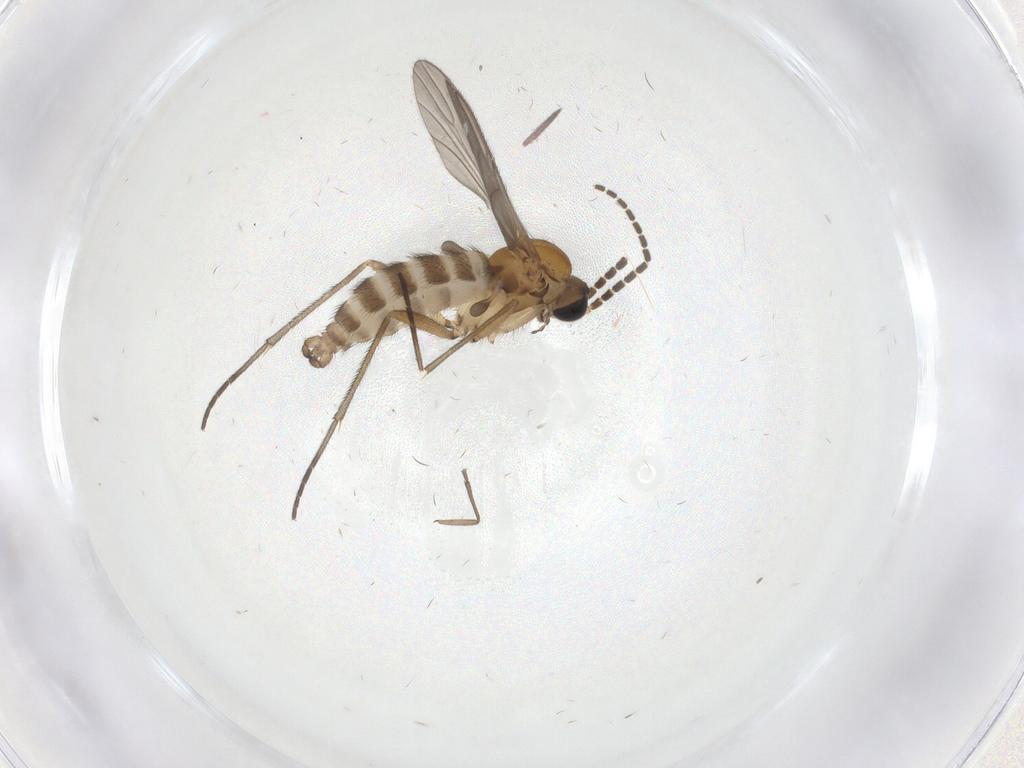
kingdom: Animalia
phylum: Arthropoda
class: Insecta
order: Diptera
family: Sciaridae
